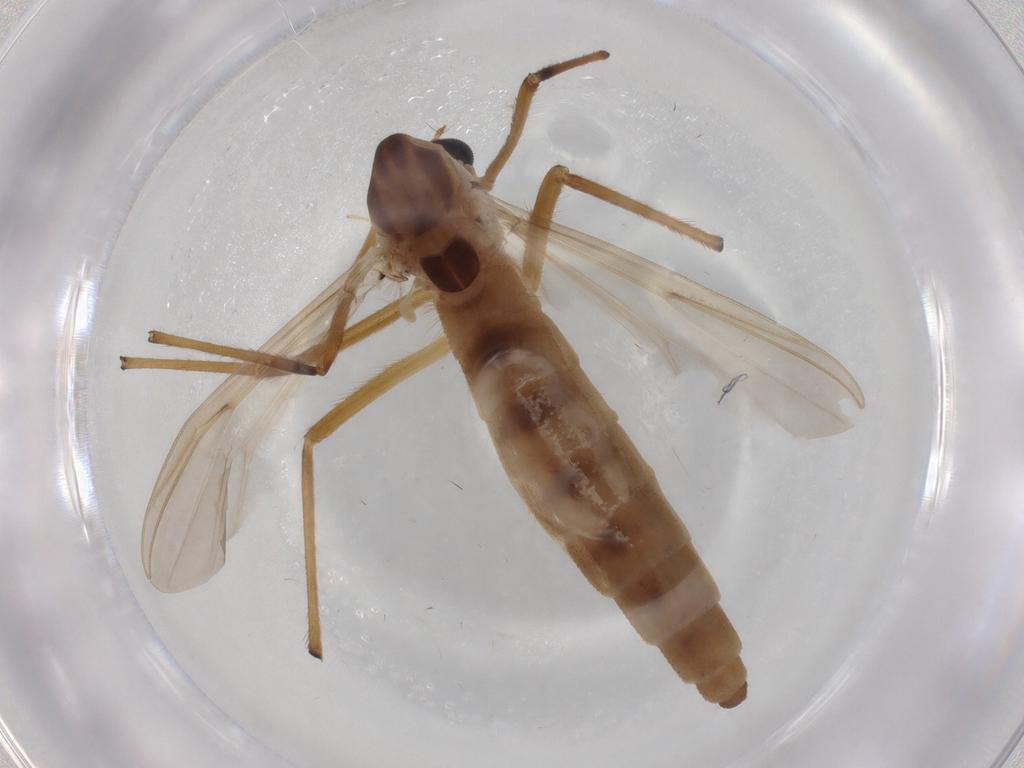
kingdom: Animalia
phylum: Arthropoda
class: Insecta
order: Diptera
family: Chironomidae
